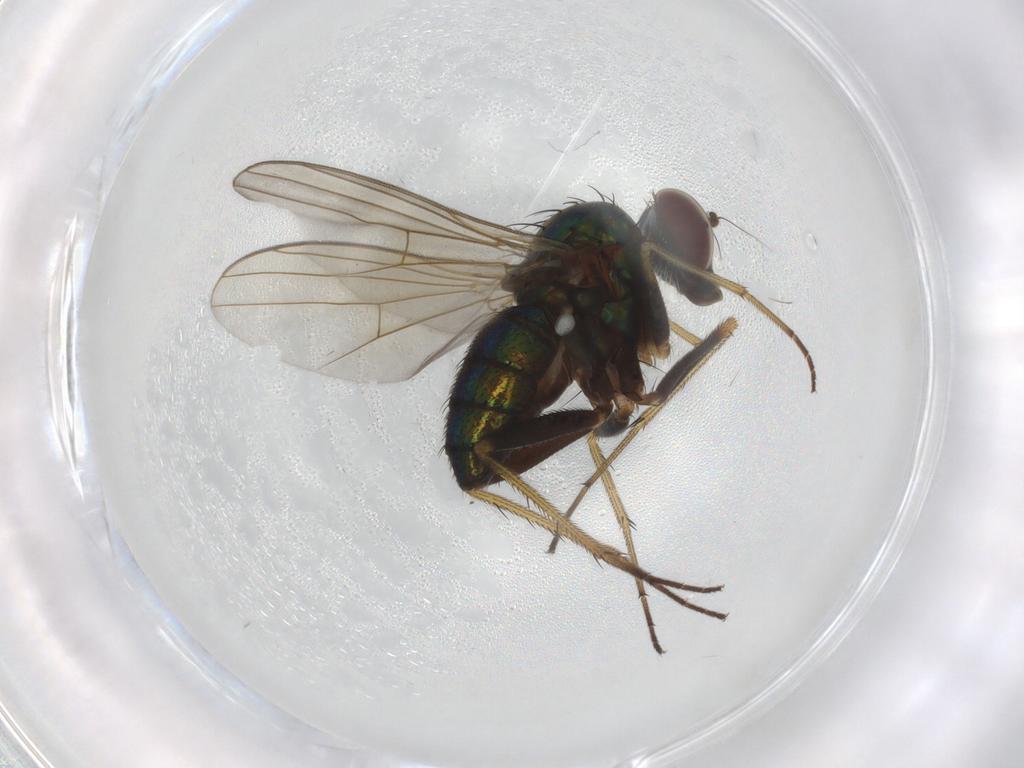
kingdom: Animalia
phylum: Arthropoda
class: Insecta
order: Diptera
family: Dolichopodidae
